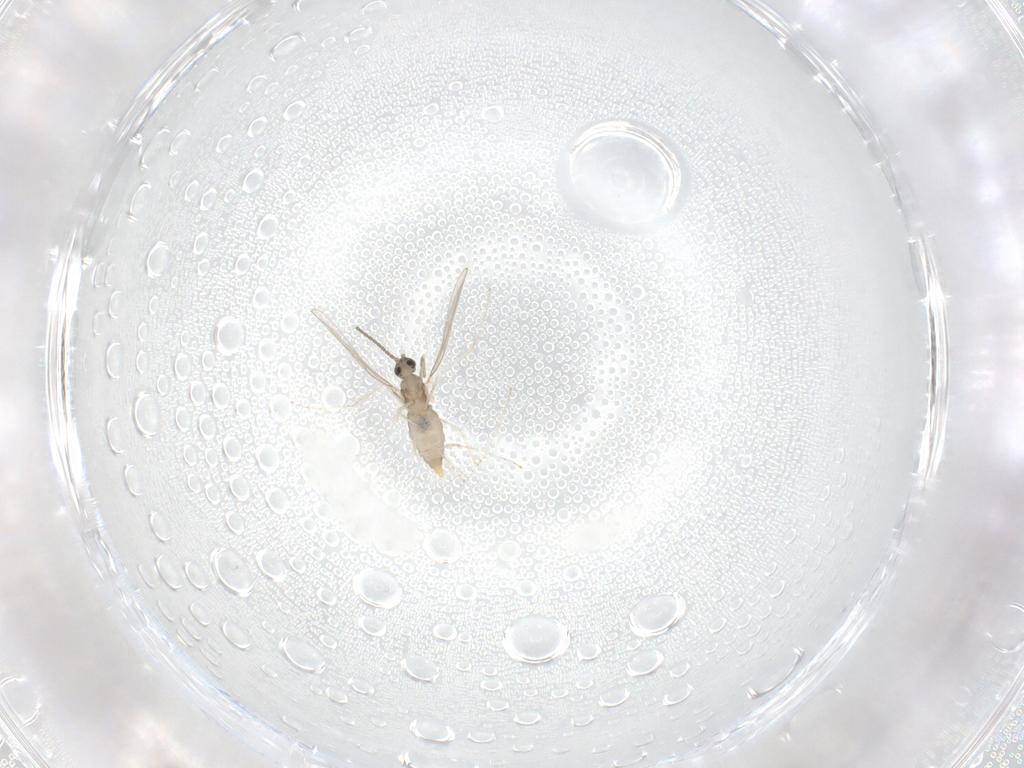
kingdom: Animalia
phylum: Arthropoda
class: Insecta
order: Diptera
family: Cecidomyiidae
